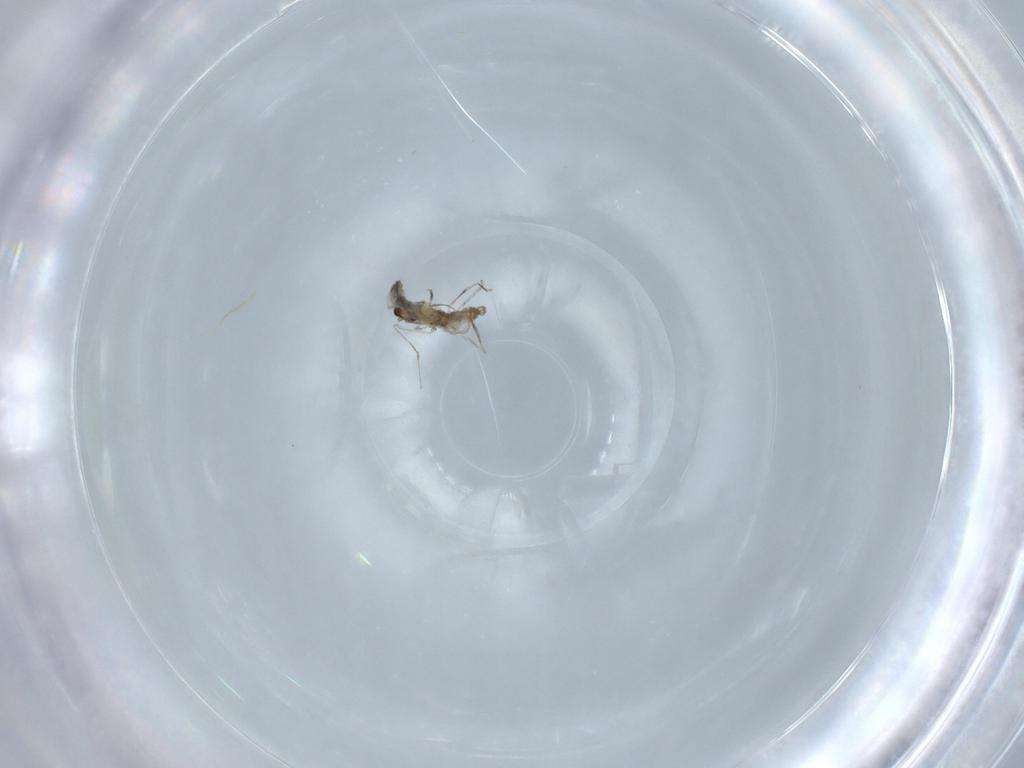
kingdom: Animalia
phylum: Arthropoda
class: Insecta
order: Diptera
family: Cecidomyiidae
